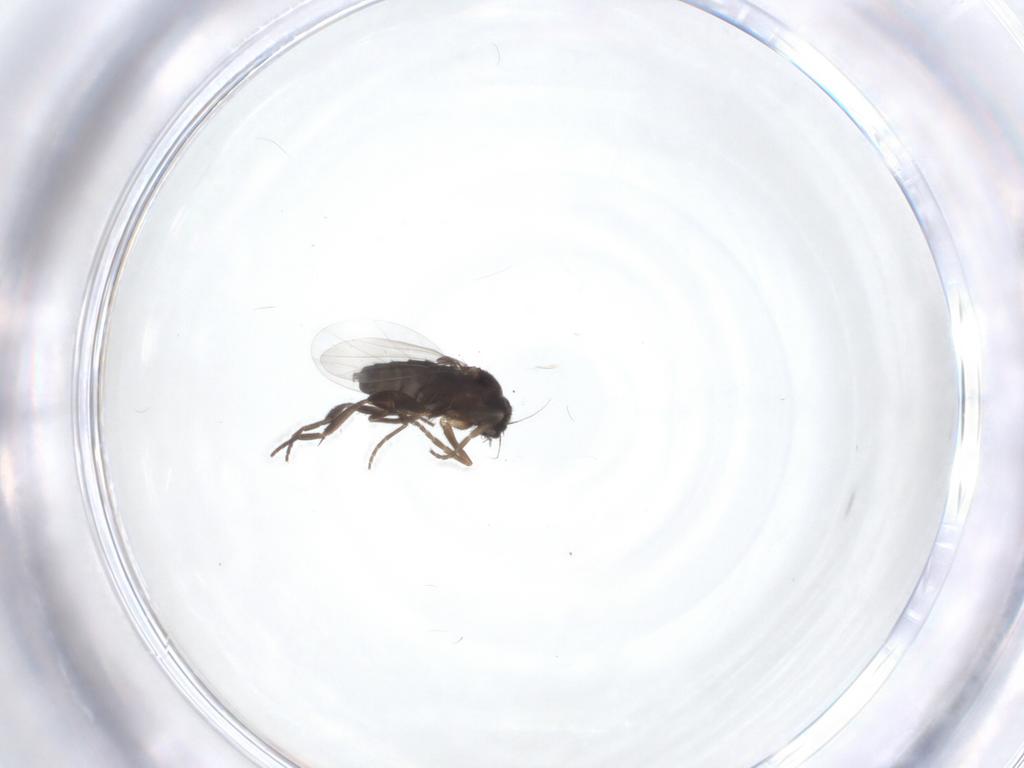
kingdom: Animalia
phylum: Arthropoda
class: Insecta
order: Diptera
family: Phoridae
